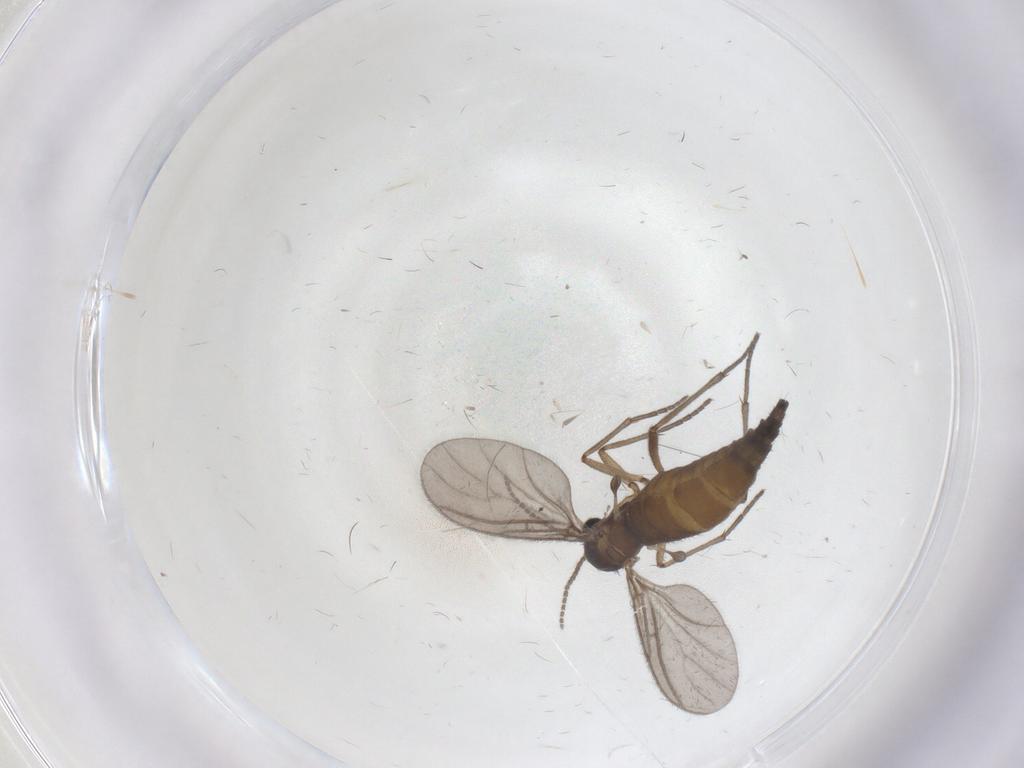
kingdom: Animalia
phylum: Arthropoda
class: Insecta
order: Diptera
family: Sciaridae
